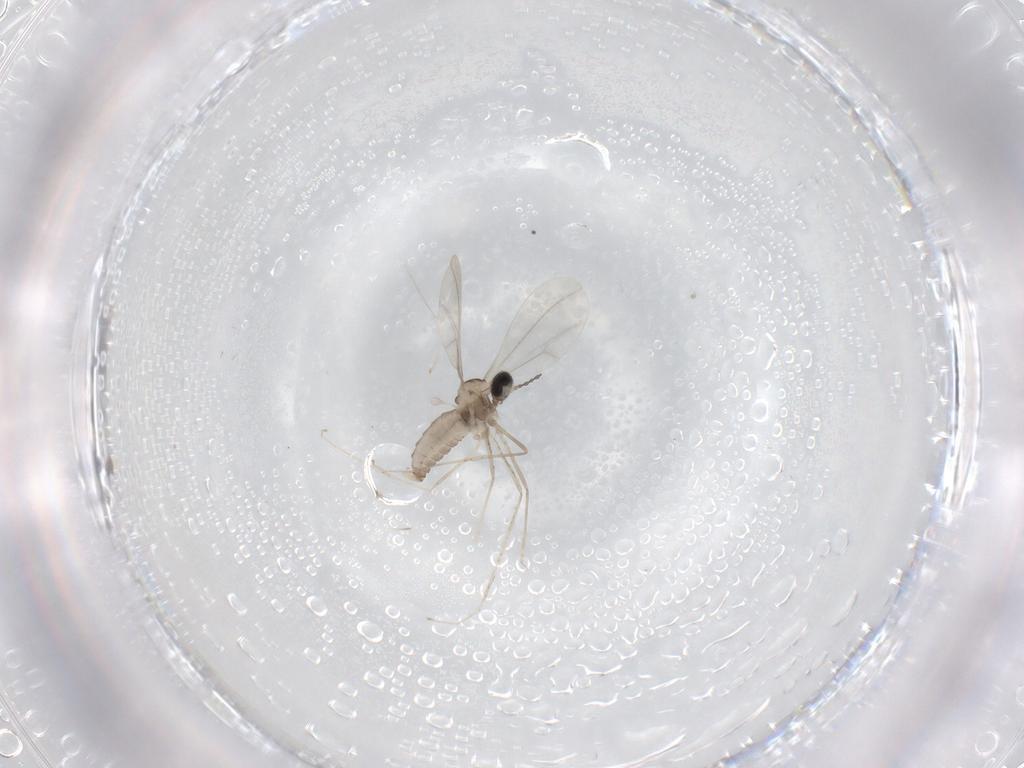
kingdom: Animalia
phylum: Arthropoda
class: Insecta
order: Diptera
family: Cecidomyiidae
